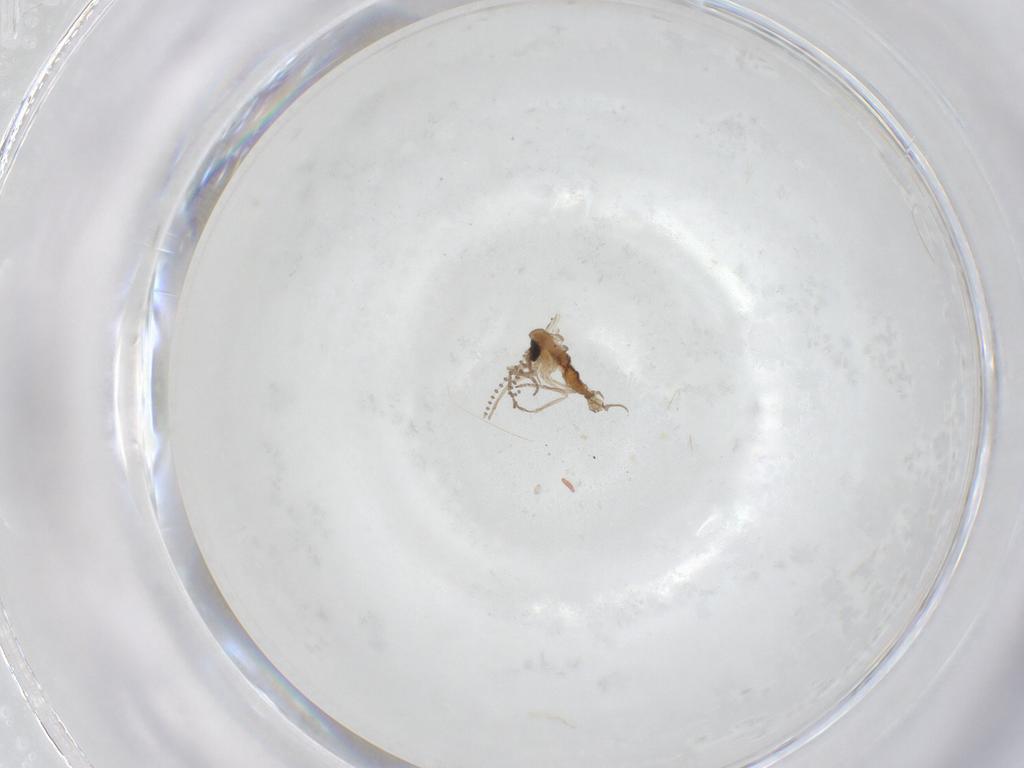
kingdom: Animalia
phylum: Arthropoda
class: Insecta
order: Diptera
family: Psychodidae
